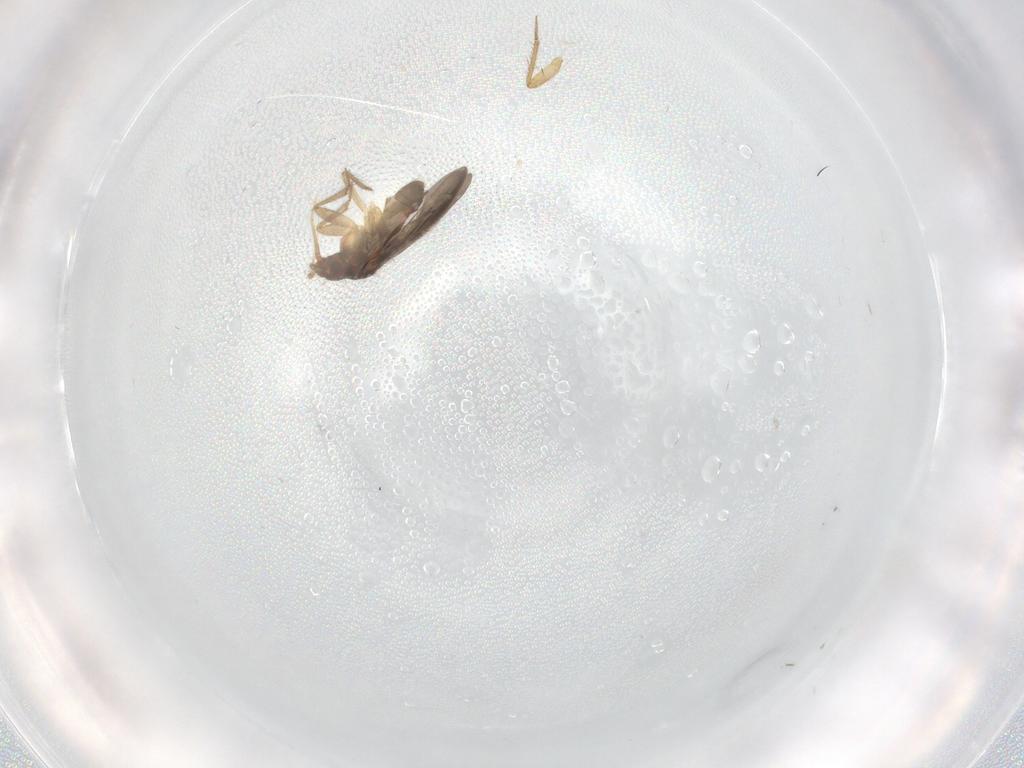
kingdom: Animalia
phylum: Arthropoda
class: Insecta
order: Hemiptera
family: Ceratocombidae
